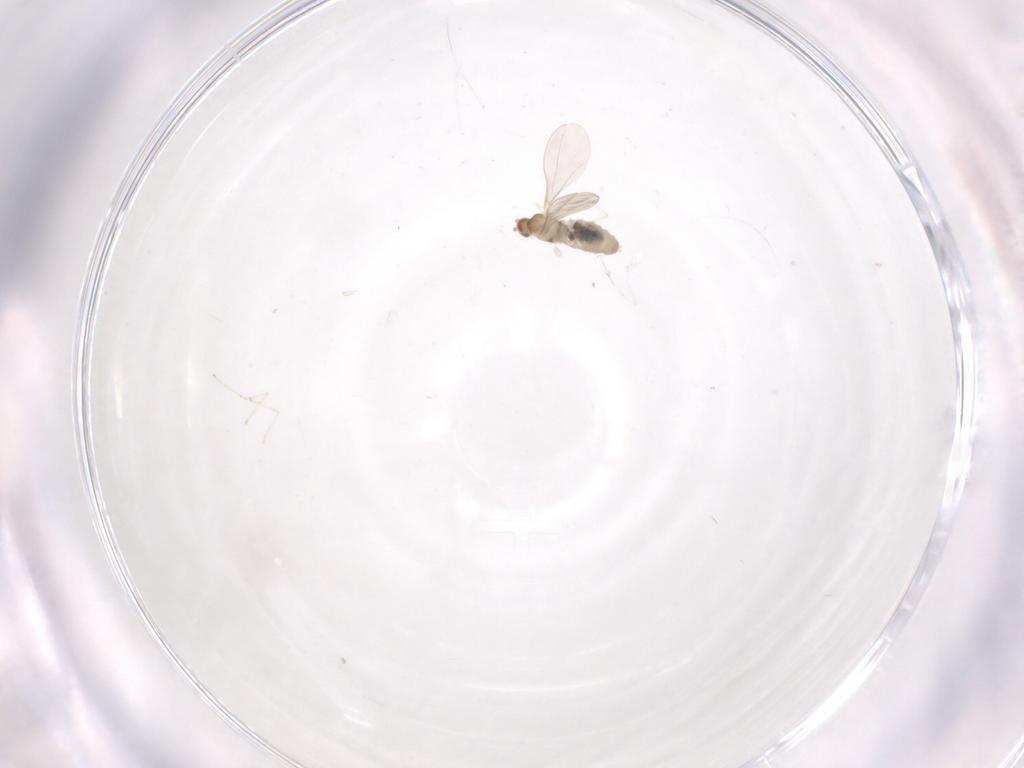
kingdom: Animalia
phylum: Arthropoda
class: Insecta
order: Diptera
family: Cecidomyiidae
